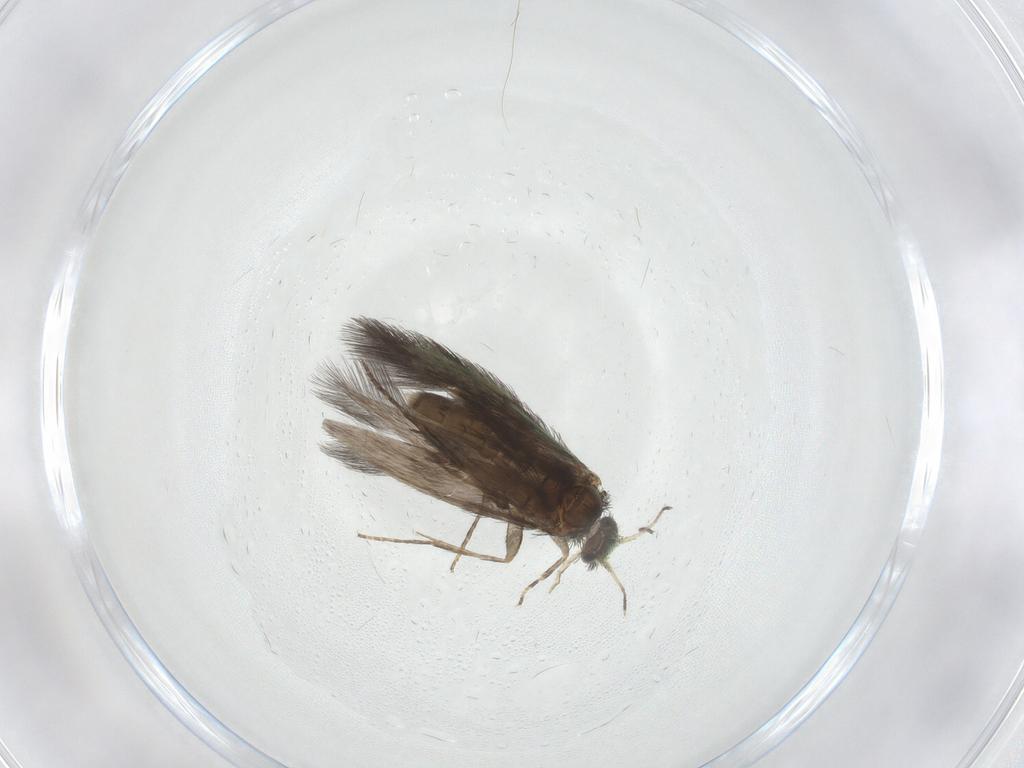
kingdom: Animalia
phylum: Arthropoda
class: Insecta
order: Trichoptera
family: Hydroptilidae
